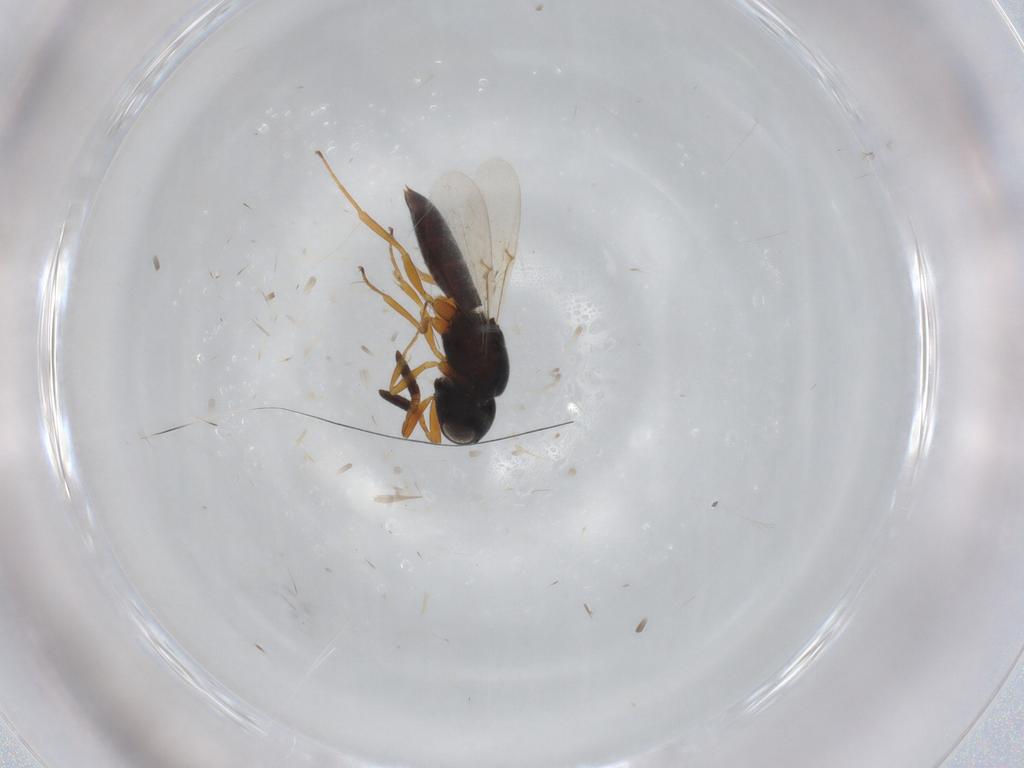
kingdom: Animalia
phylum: Arthropoda
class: Insecta
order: Hymenoptera
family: Scelionidae
